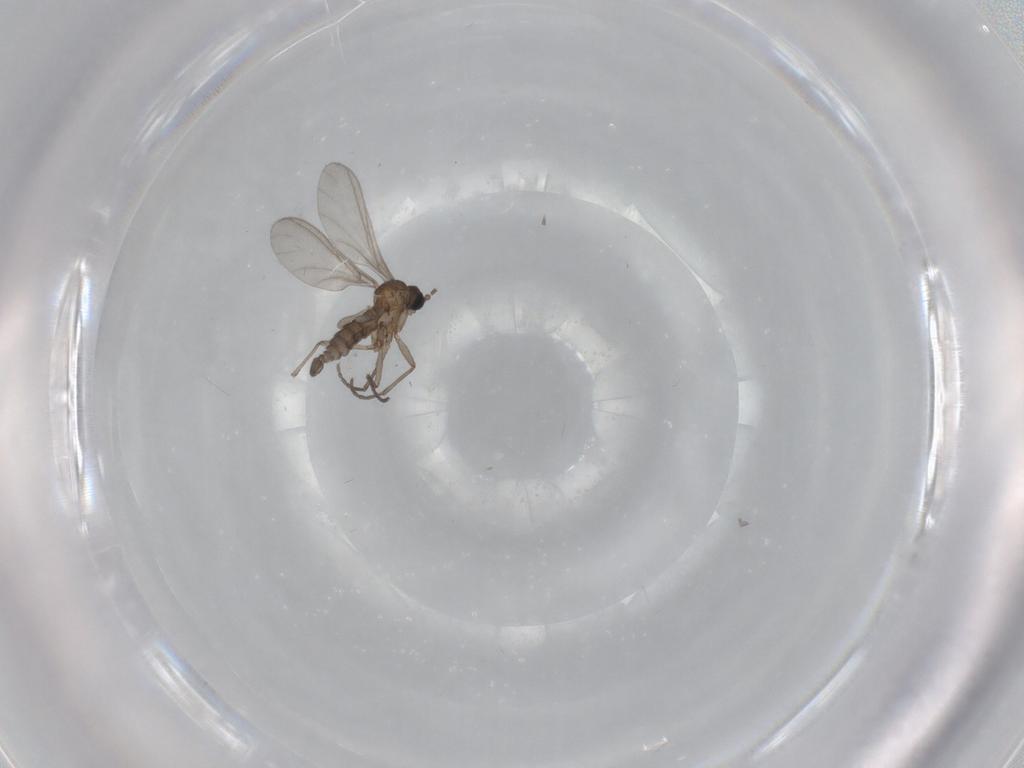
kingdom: Animalia
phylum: Arthropoda
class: Insecta
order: Diptera
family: Sciaridae
